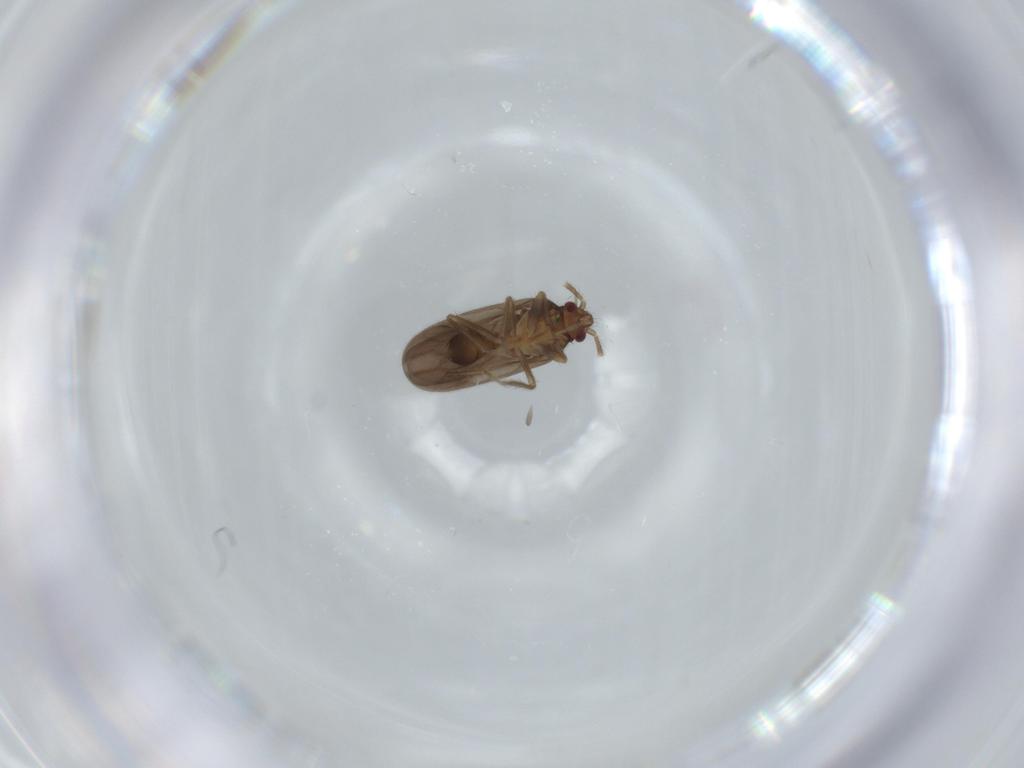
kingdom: Animalia
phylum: Arthropoda
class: Insecta
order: Hemiptera
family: Ceratocombidae
